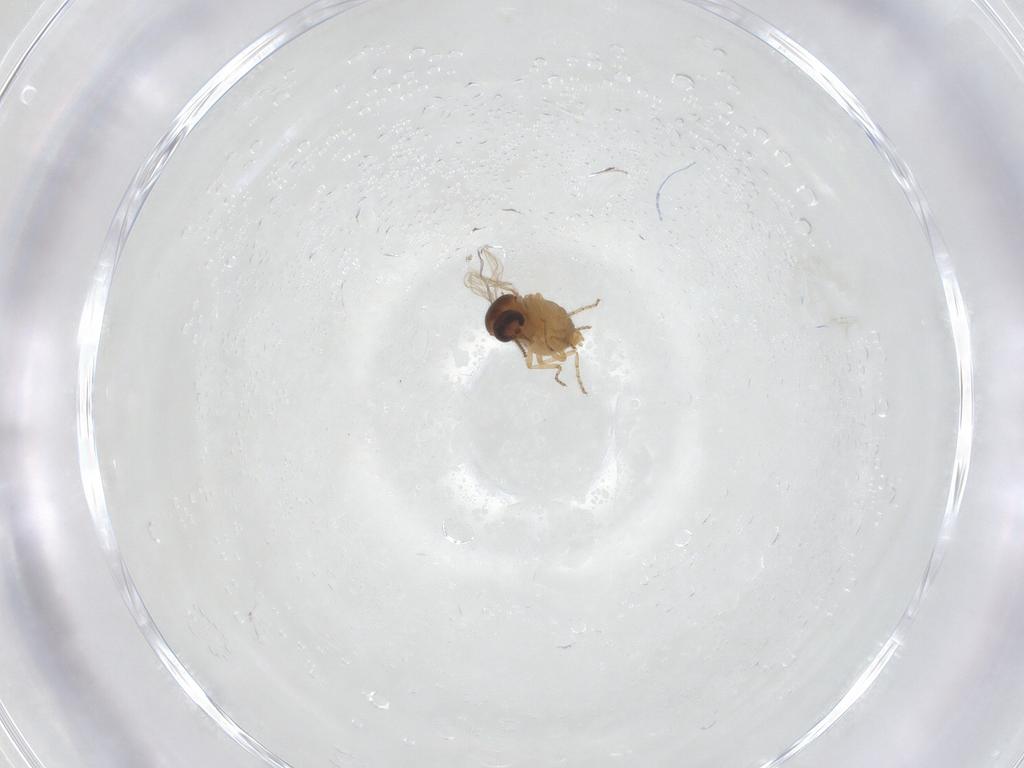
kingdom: Animalia
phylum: Arthropoda
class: Insecta
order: Diptera
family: Ceratopogonidae
